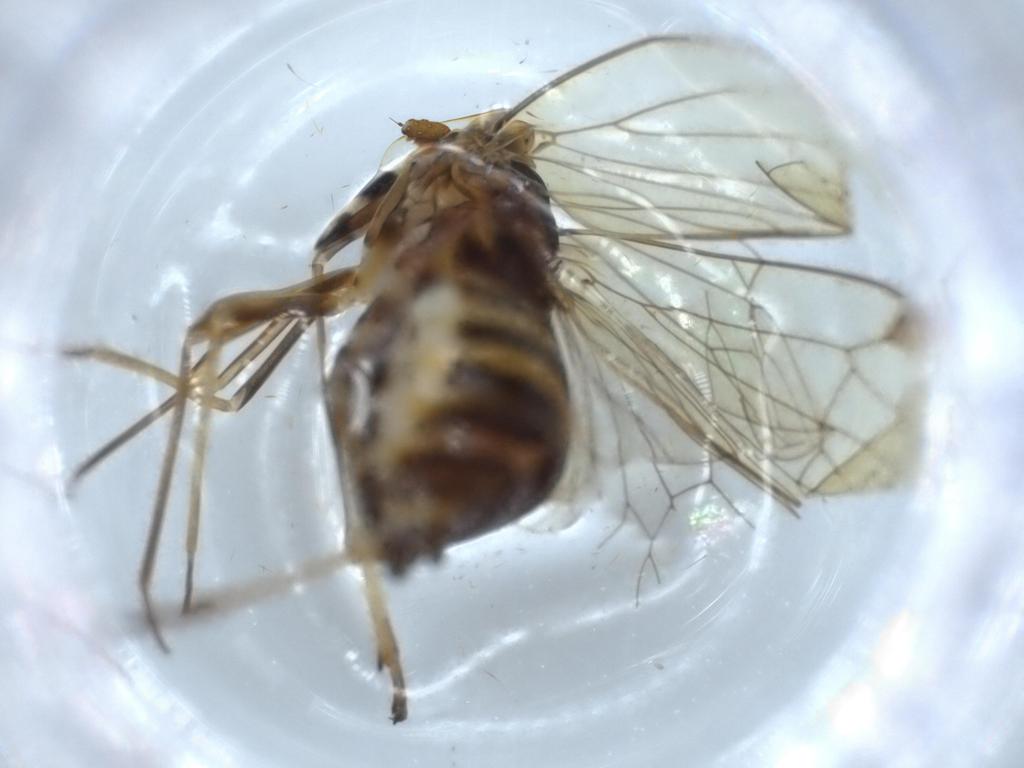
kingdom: Animalia
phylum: Arthropoda
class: Insecta
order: Hemiptera
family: Kinnaridae
